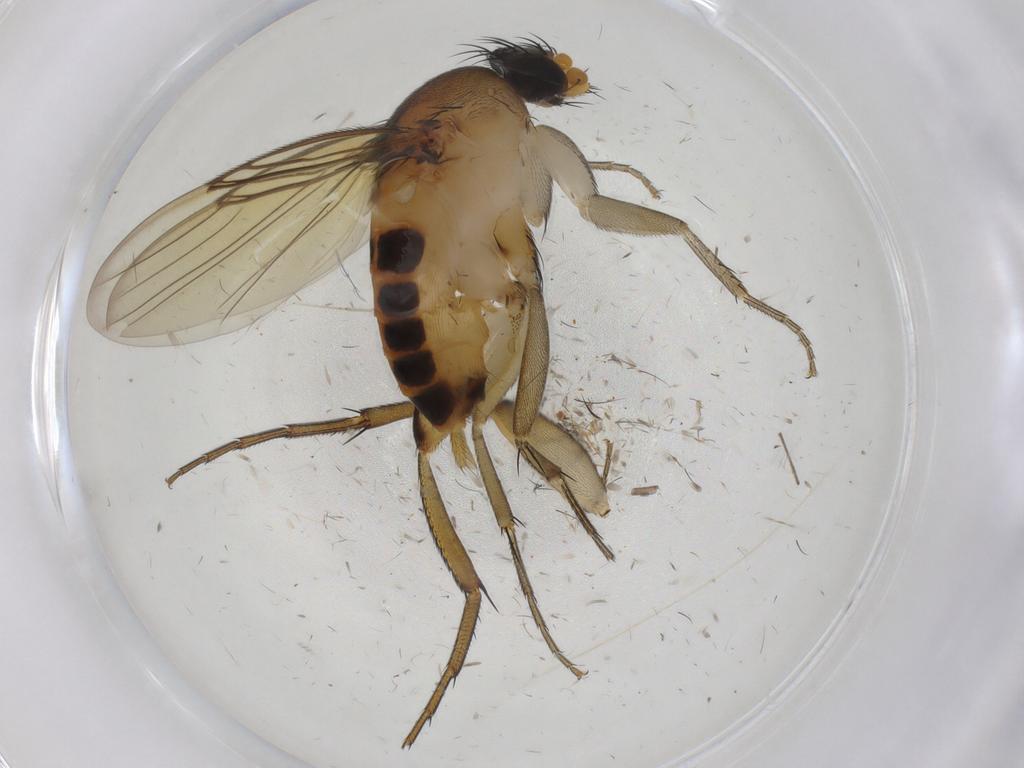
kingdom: Animalia
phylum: Arthropoda
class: Insecta
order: Diptera
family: Phoridae
